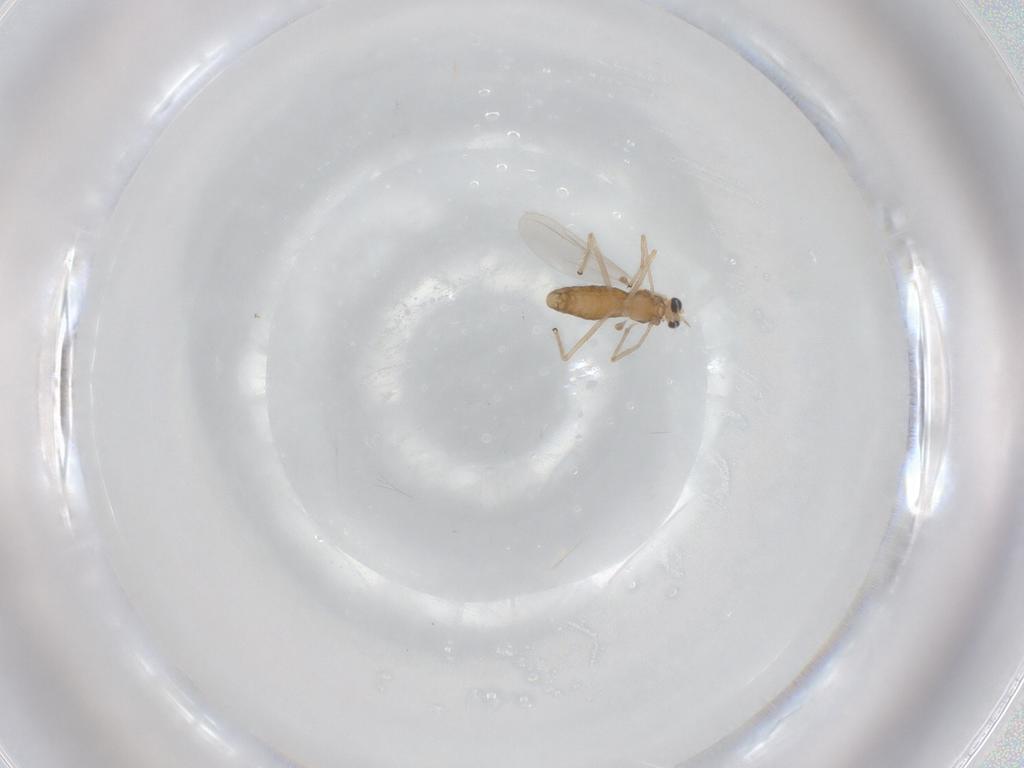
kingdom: Animalia
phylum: Arthropoda
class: Insecta
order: Diptera
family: Chironomidae
